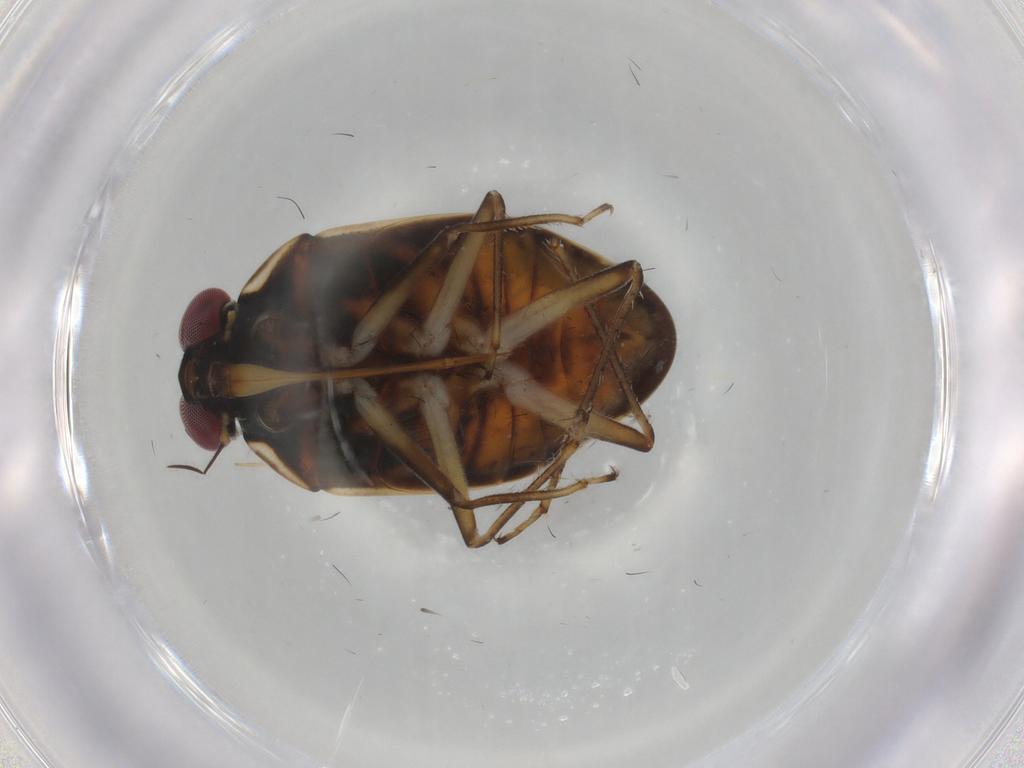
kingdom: Animalia
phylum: Arthropoda
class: Insecta
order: Hemiptera
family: Ochteridae
